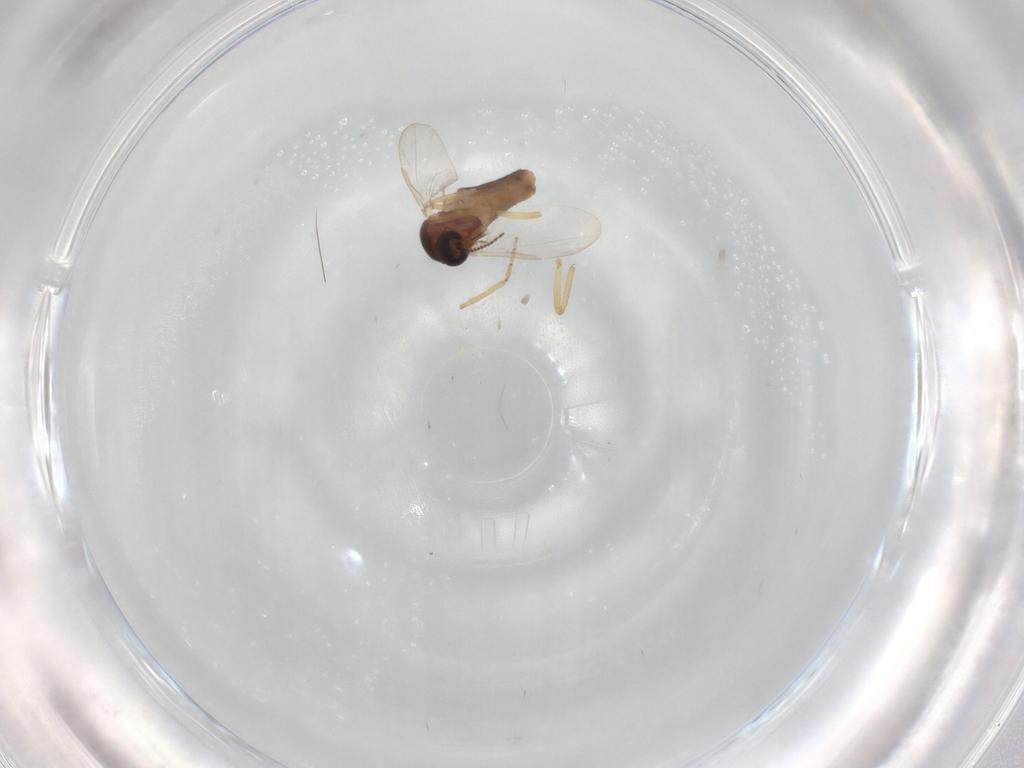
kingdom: Animalia
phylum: Arthropoda
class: Insecta
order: Diptera
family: Ceratopogonidae
